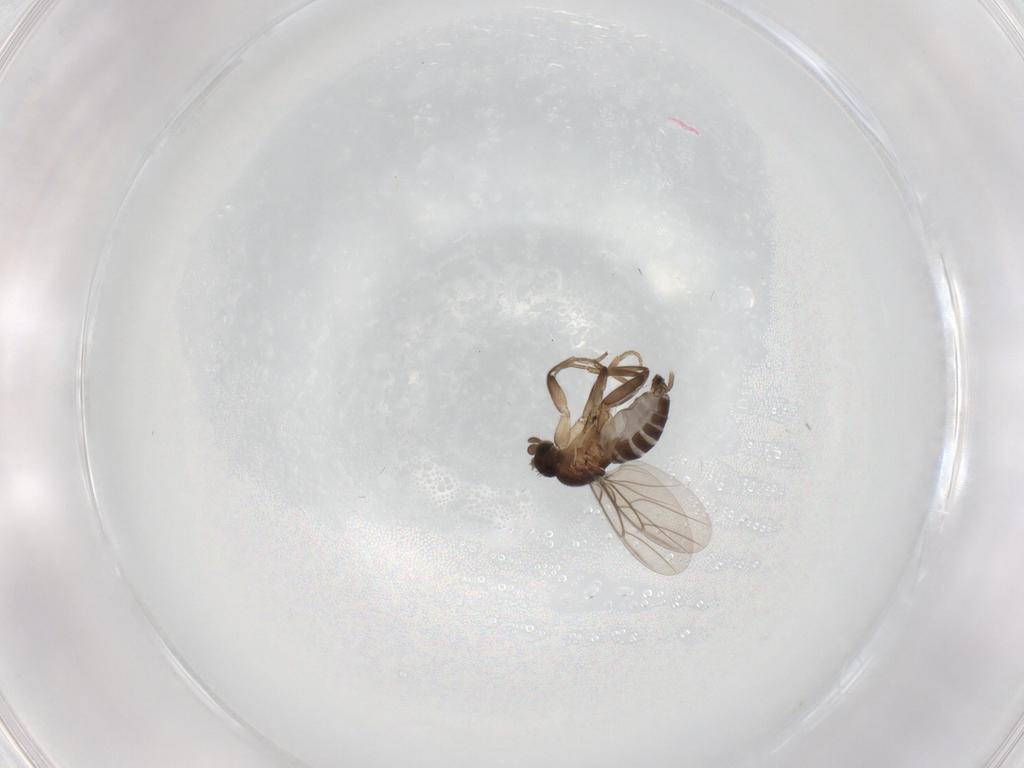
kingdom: Animalia
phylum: Arthropoda
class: Insecta
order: Diptera
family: Phoridae
